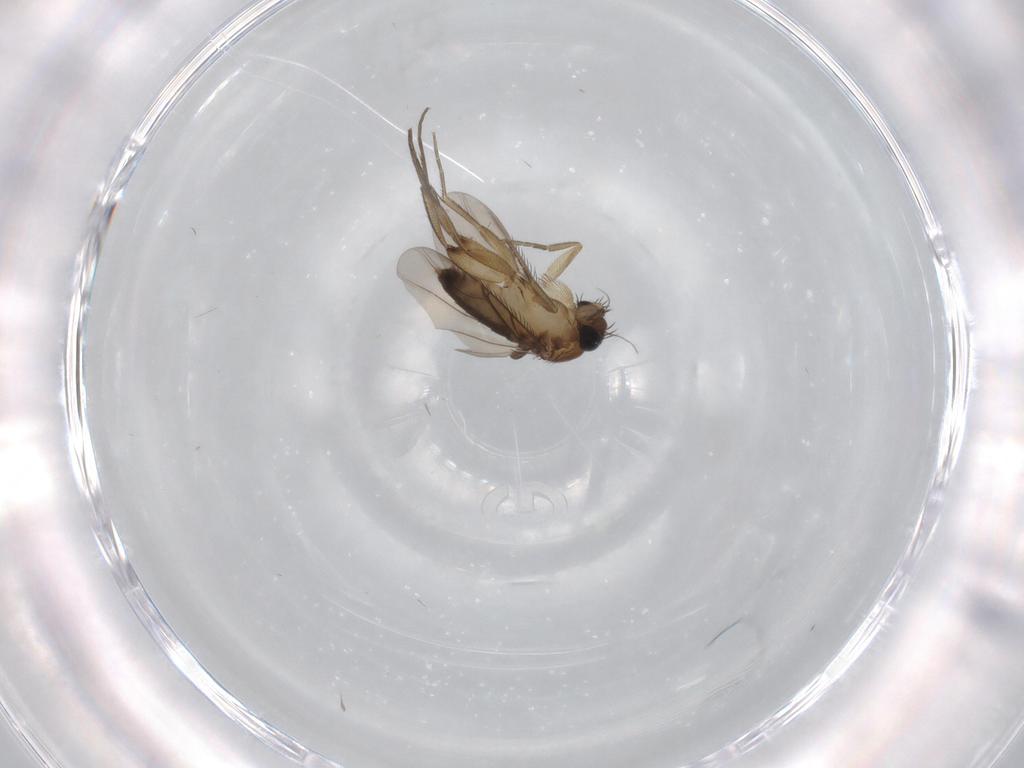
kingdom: Animalia
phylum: Arthropoda
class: Insecta
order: Diptera
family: Phoridae
